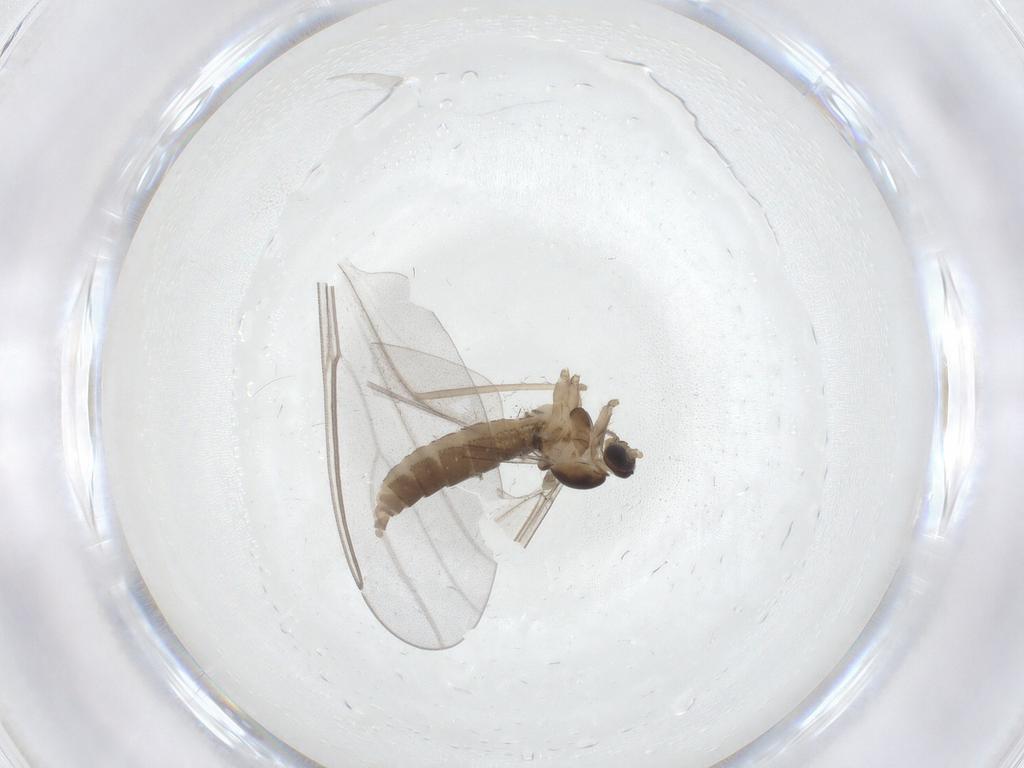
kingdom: Animalia
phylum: Arthropoda
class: Insecta
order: Diptera
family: Cecidomyiidae
